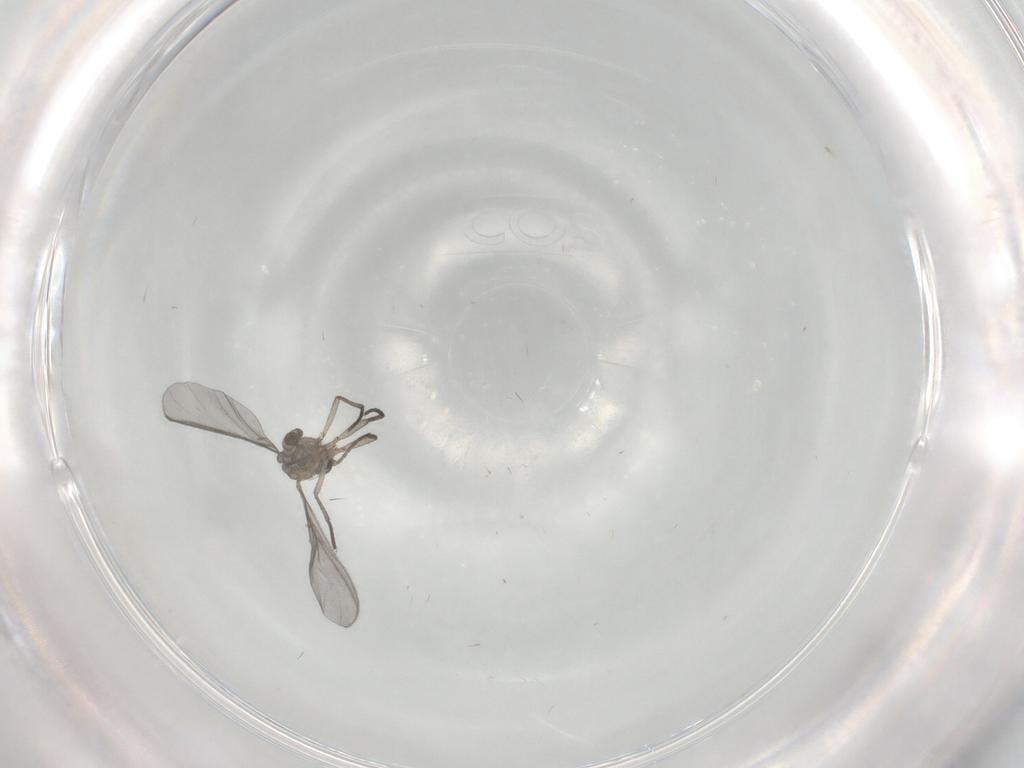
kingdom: Animalia
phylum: Arthropoda
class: Insecta
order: Diptera
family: Sciaridae
